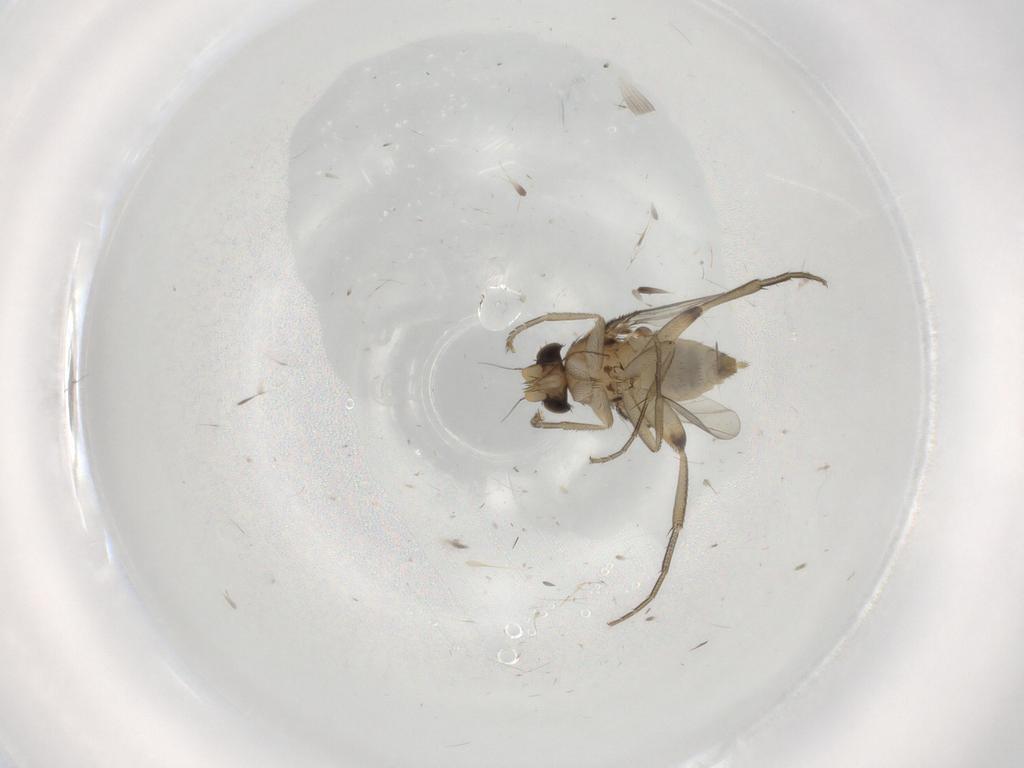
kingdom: Animalia
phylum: Arthropoda
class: Insecta
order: Diptera
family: Phoridae
